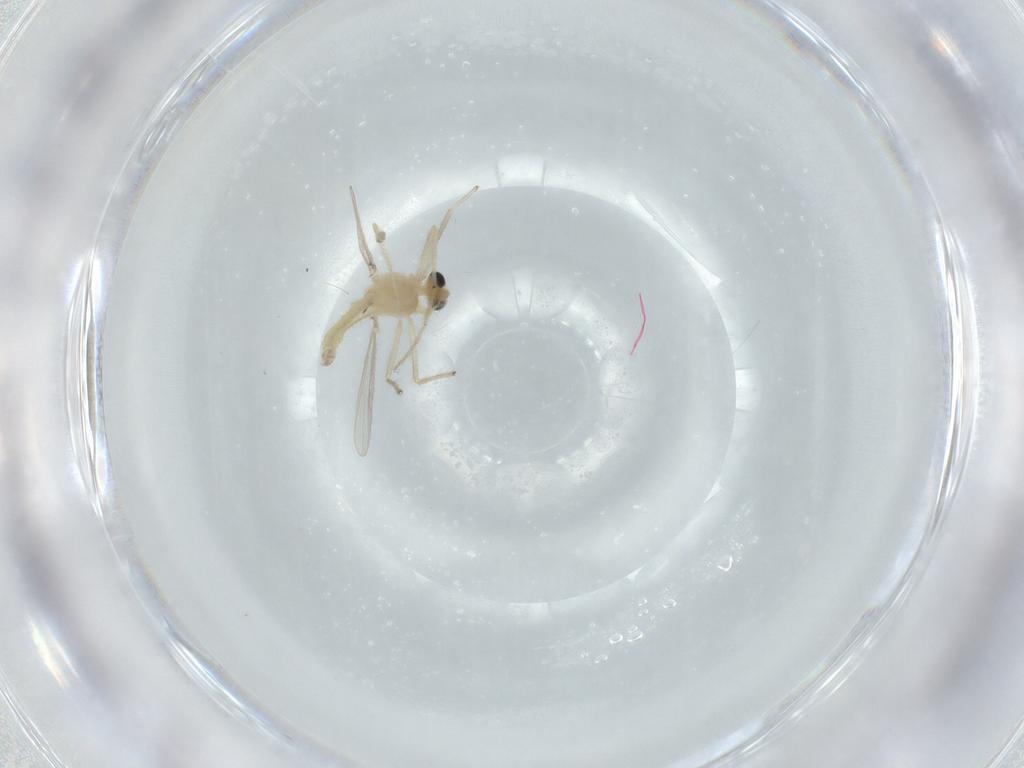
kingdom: Animalia
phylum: Arthropoda
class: Insecta
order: Diptera
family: Chironomidae
